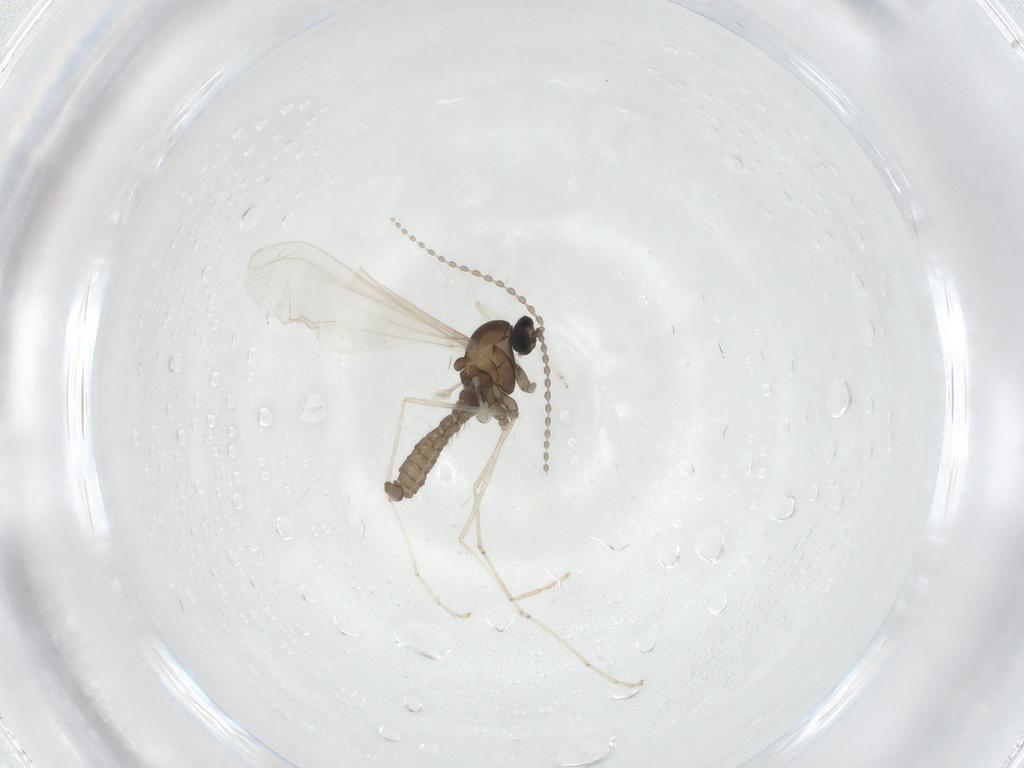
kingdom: Animalia
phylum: Arthropoda
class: Insecta
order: Diptera
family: Cecidomyiidae
